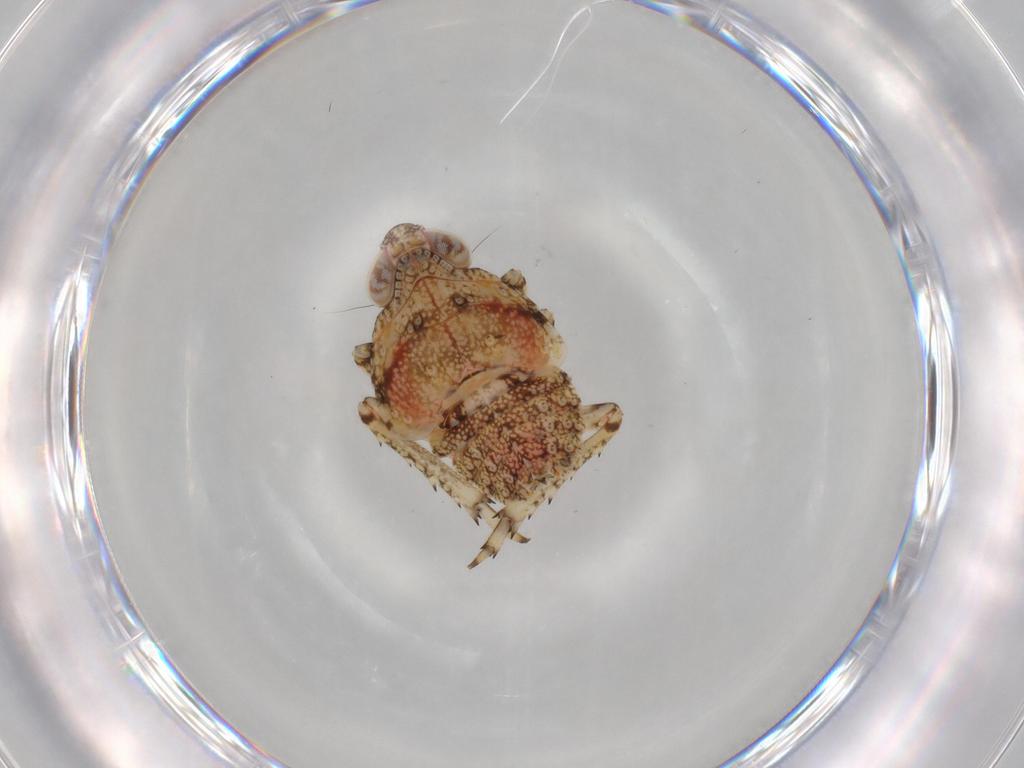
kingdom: Animalia
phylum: Arthropoda
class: Insecta
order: Hemiptera
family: Issidae
